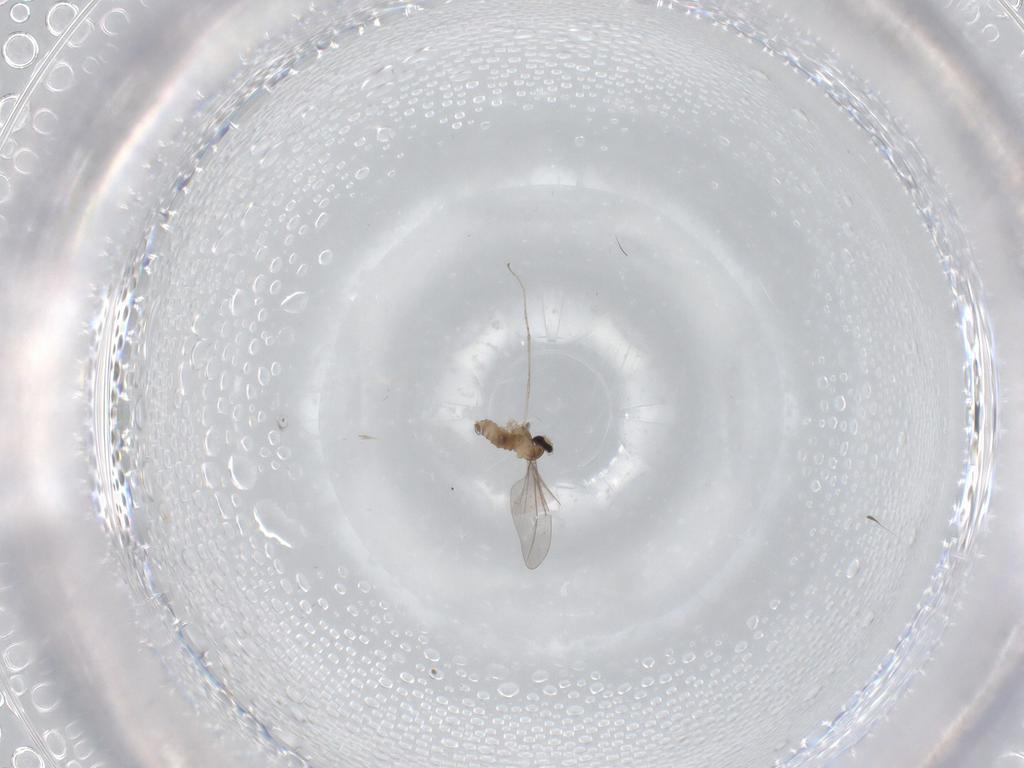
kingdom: Animalia
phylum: Arthropoda
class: Insecta
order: Diptera
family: Cecidomyiidae
